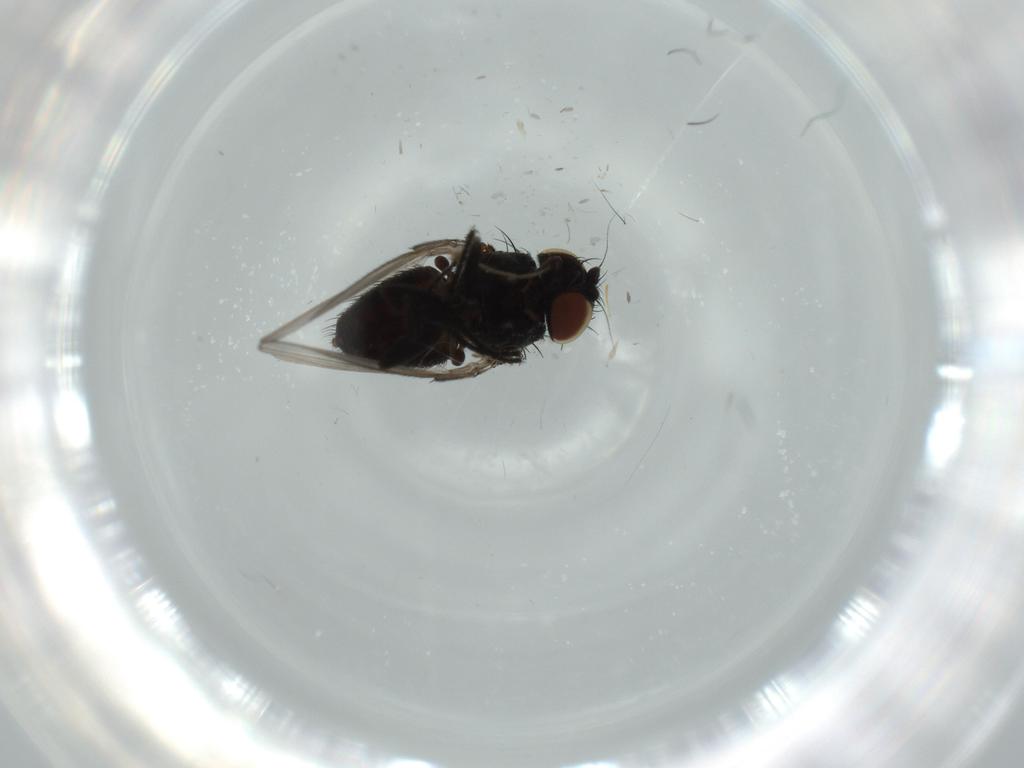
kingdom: Animalia
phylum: Arthropoda
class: Insecta
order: Diptera
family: Milichiidae
